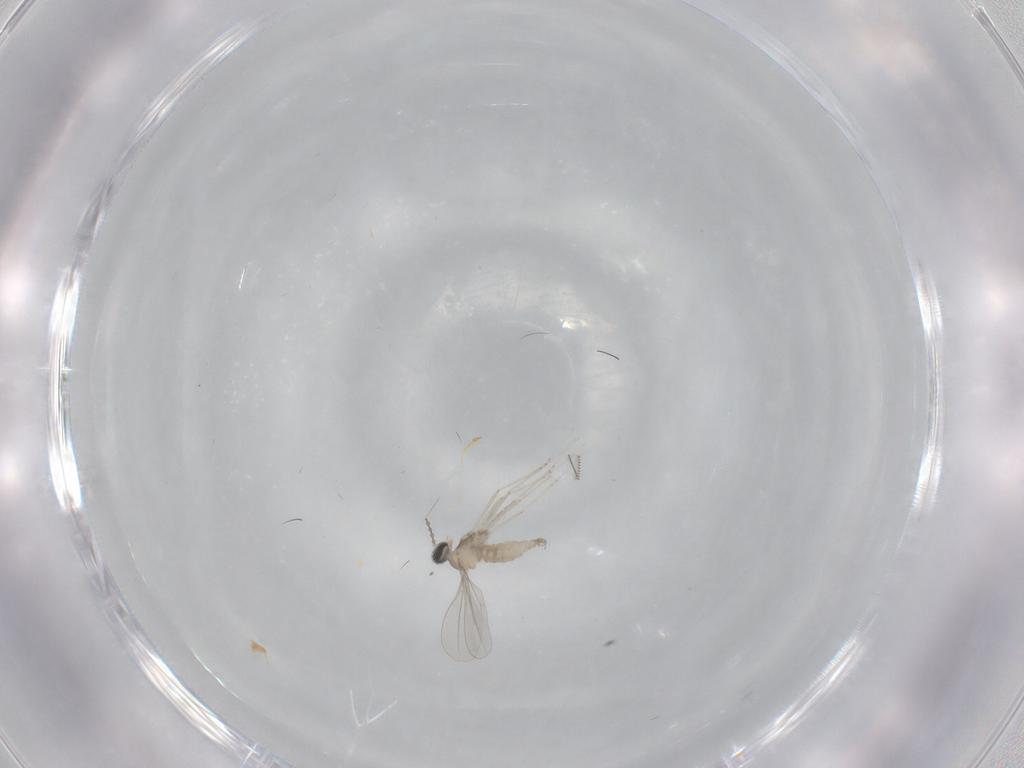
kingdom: Animalia
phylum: Arthropoda
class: Insecta
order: Diptera
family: Cecidomyiidae
